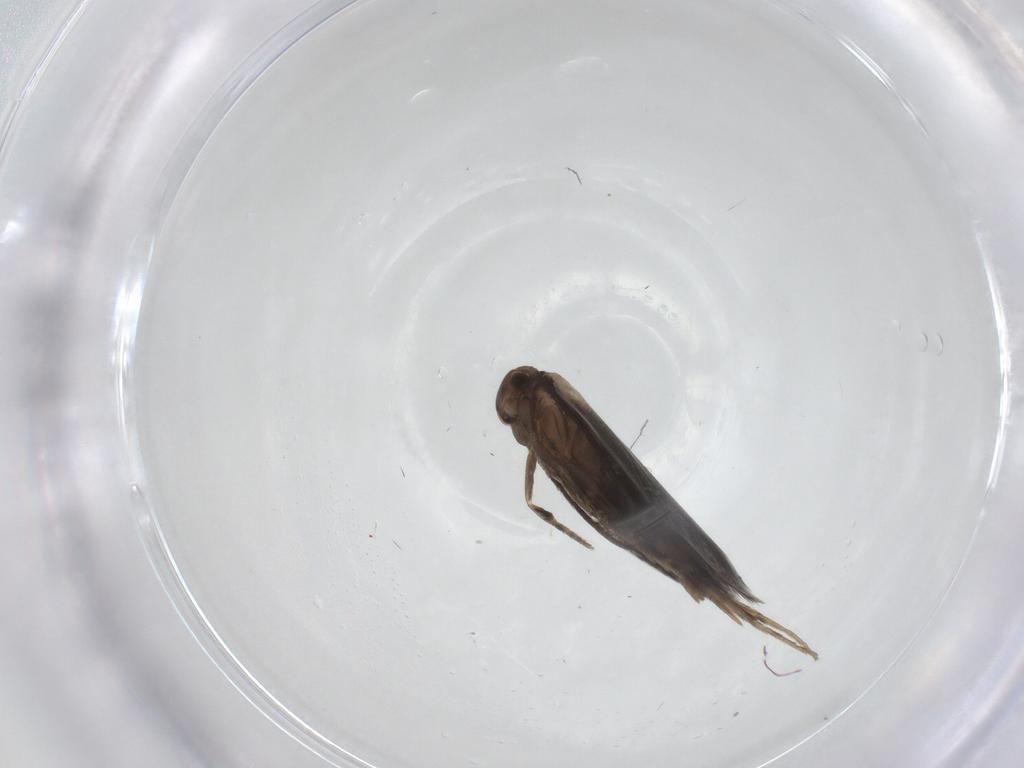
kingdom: Animalia
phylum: Arthropoda
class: Insecta
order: Lepidoptera
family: Elachistidae
